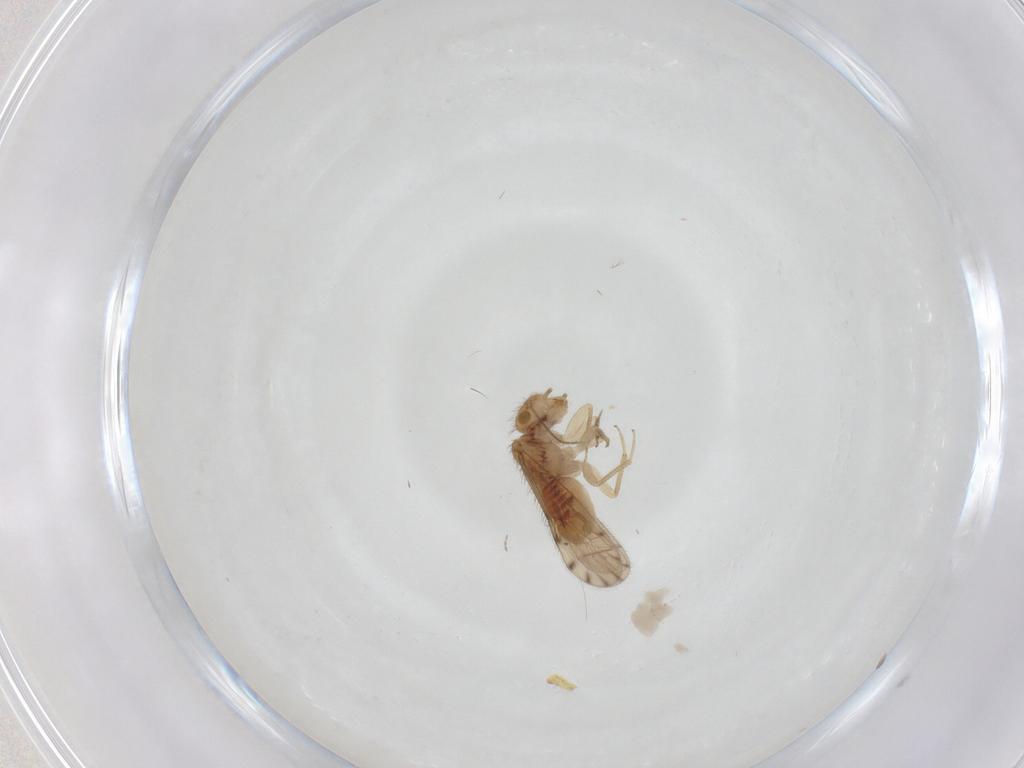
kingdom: Animalia
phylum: Arthropoda
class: Insecta
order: Psocodea
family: Ectopsocidae
